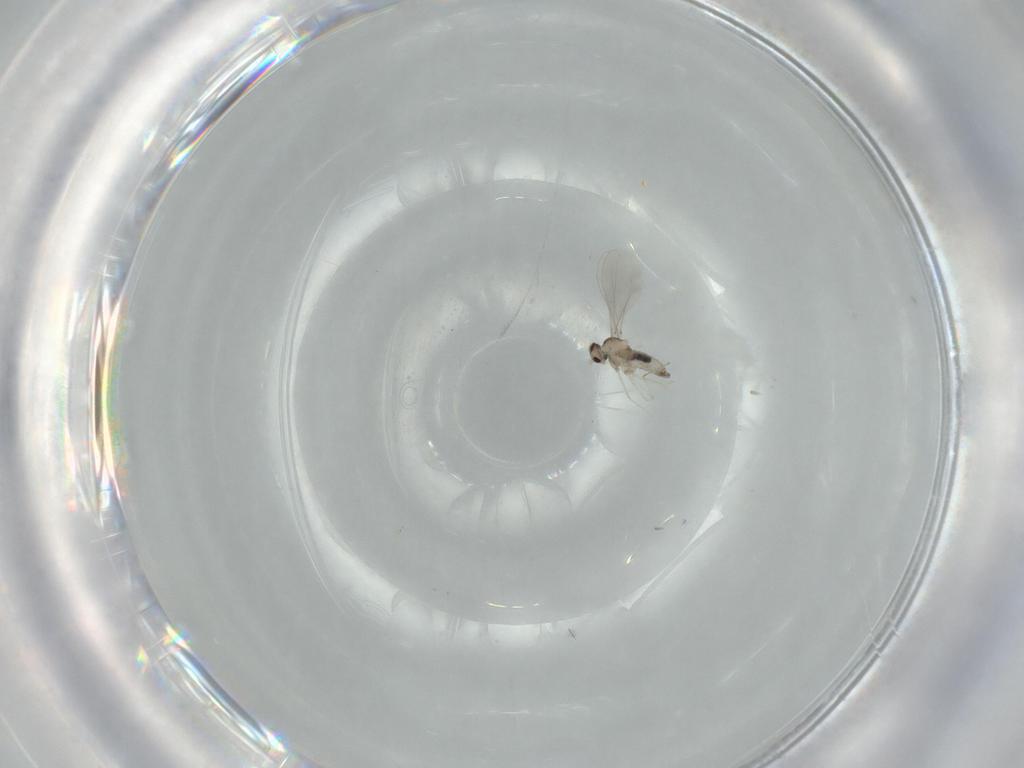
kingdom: Animalia
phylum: Arthropoda
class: Insecta
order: Diptera
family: Cecidomyiidae
